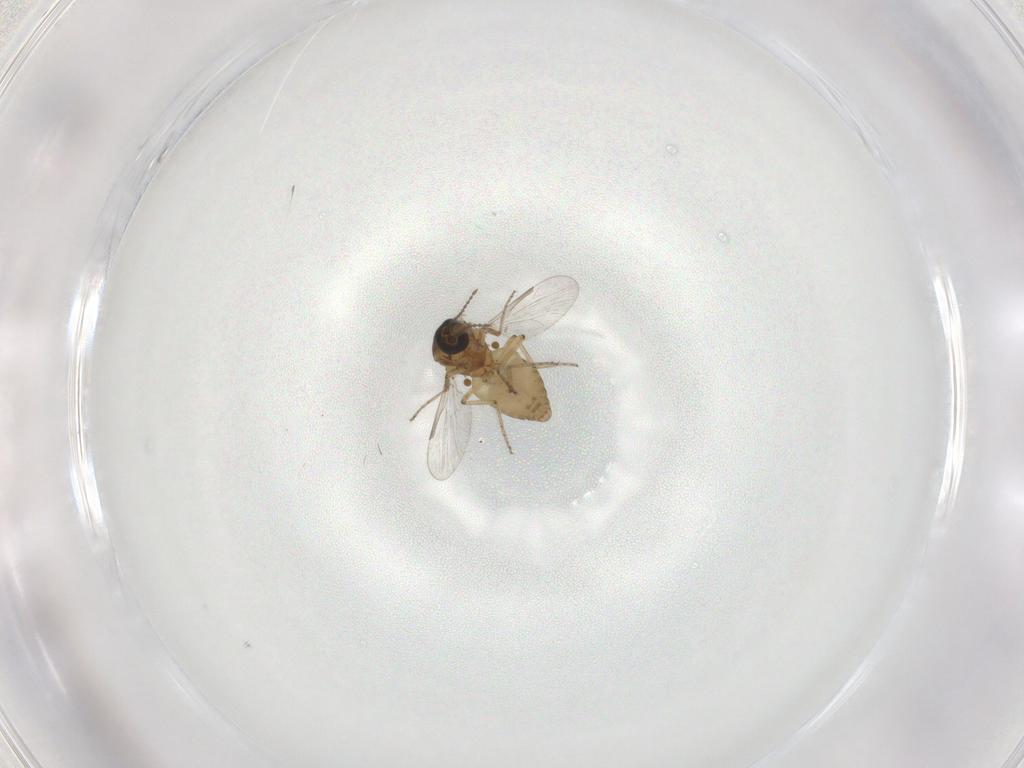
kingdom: Animalia
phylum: Arthropoda
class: Insecta
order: Diptera
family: Ceratopogonidae
